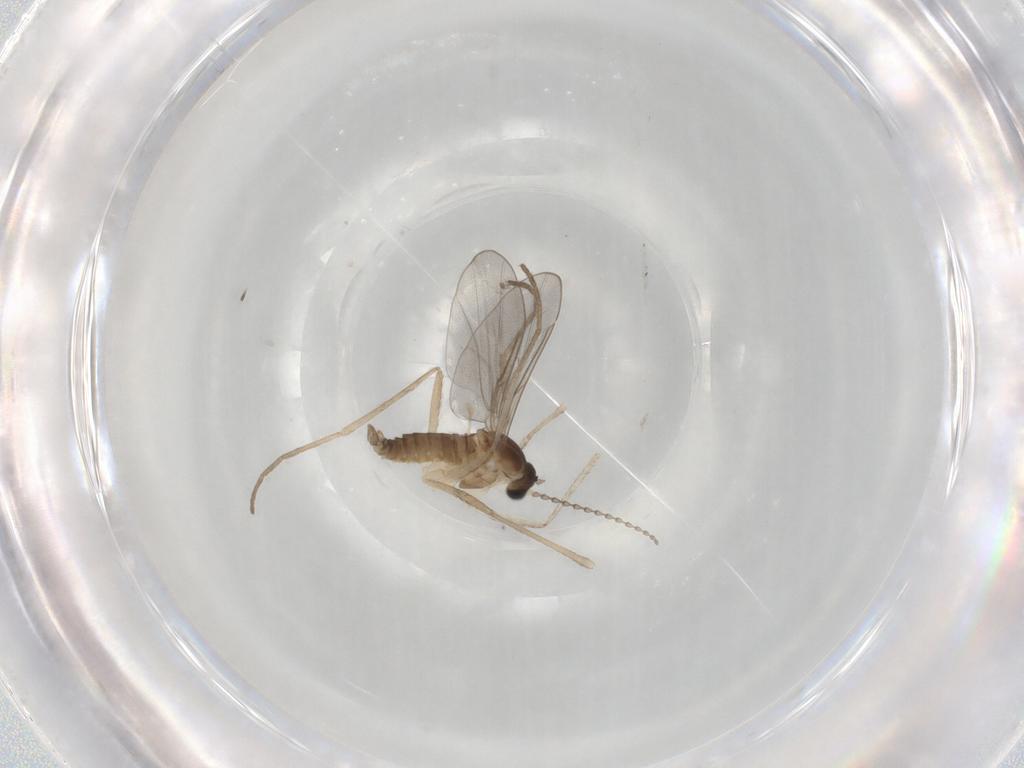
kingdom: Animalia
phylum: Arthropoda
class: Insecta
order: Diptera
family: Cecidomyiidae
